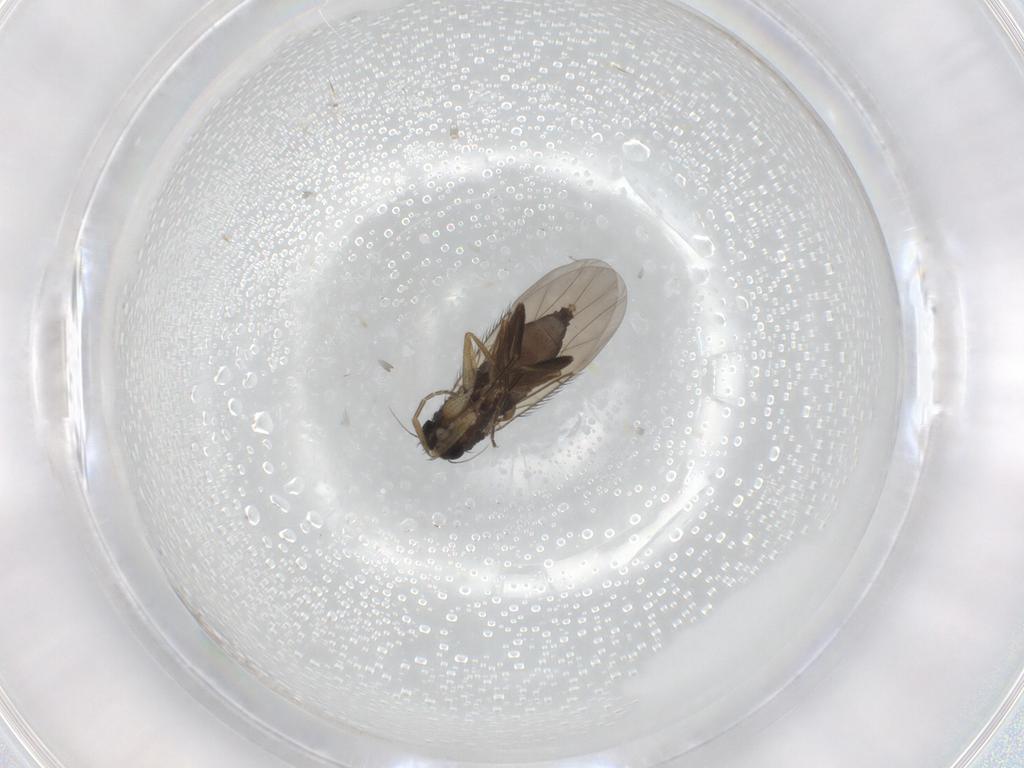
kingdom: Animalia
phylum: Arthropoda
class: Insecta
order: Diptera
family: Phoridae
